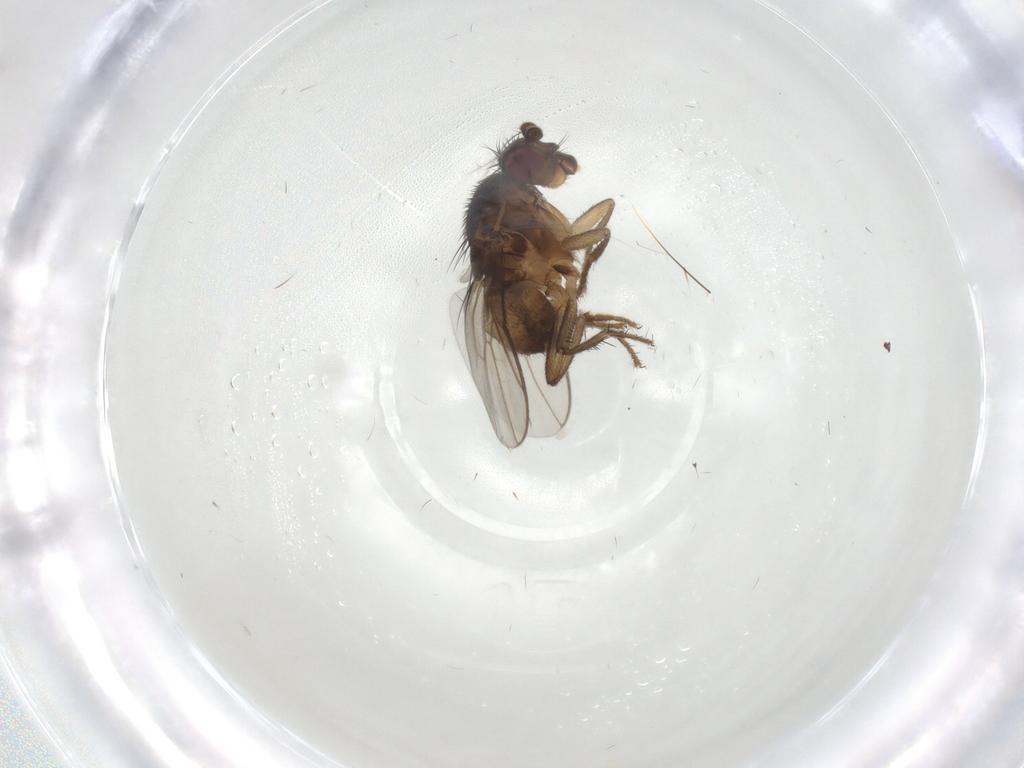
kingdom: Animalia
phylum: Arthropoda
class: Insecta
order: Diptera
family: Sphaeroceridae
